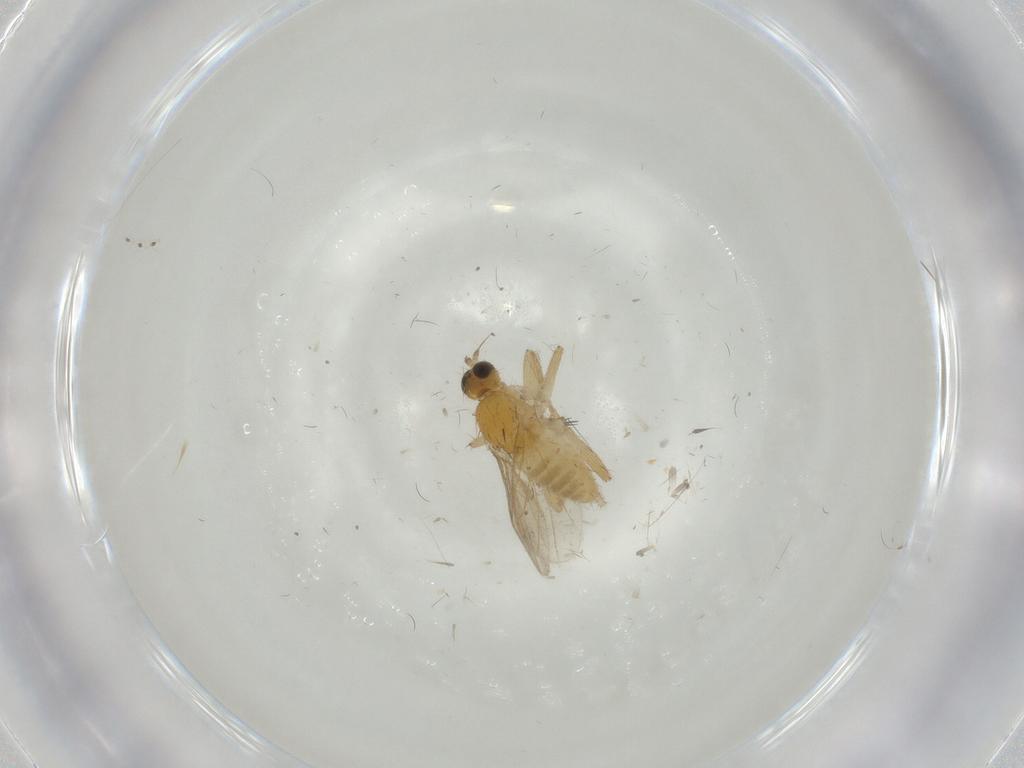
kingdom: Animalia
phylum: Arthropoda
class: Insecta
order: Diptera
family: Hybotidae
